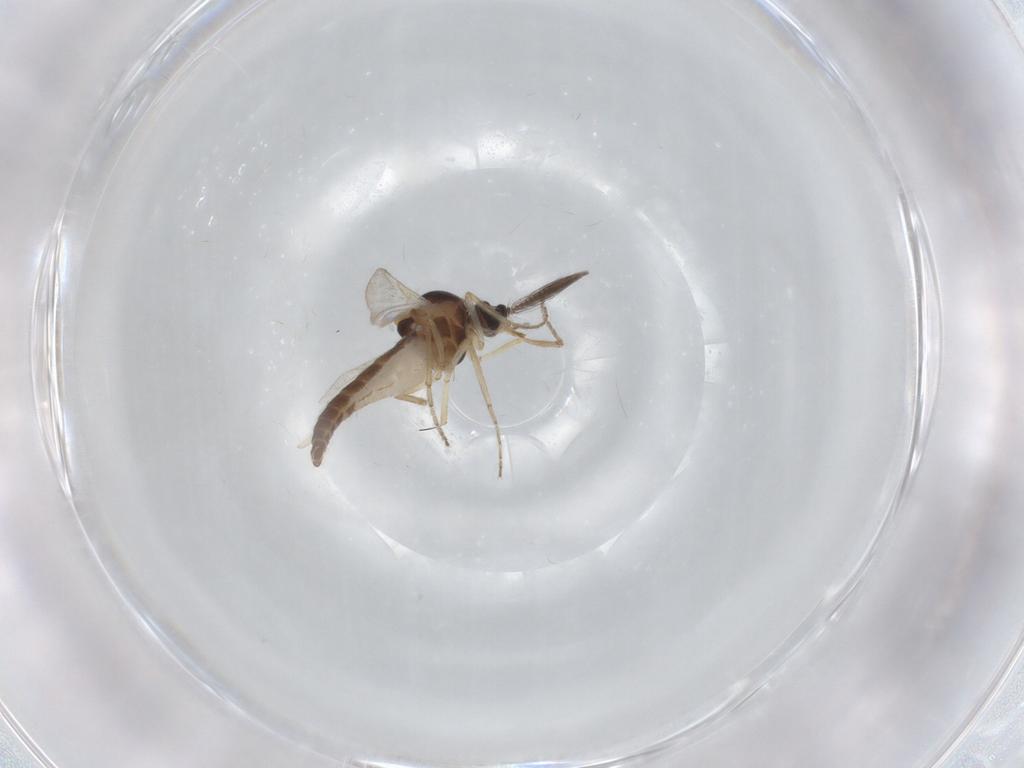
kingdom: Animalia
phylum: Arthropoda
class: Insecta
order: Diptera
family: Ceratopogonidae
